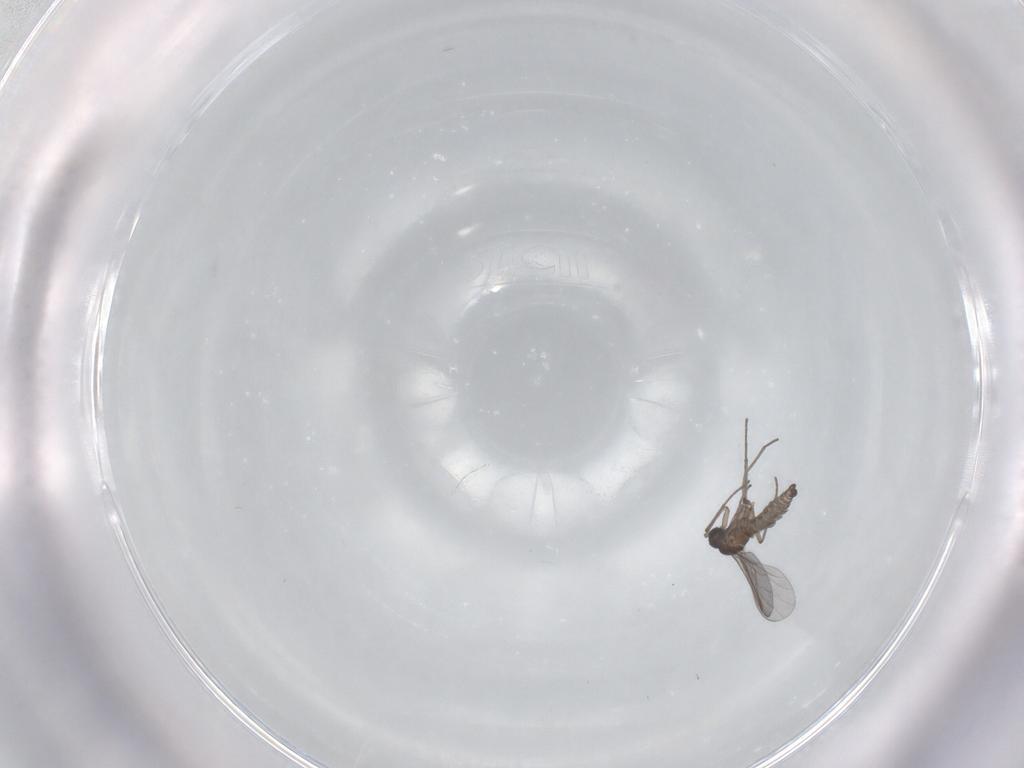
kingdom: Animalia
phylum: Arthropoda
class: Insecta
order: Diptera
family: Sciaridae
